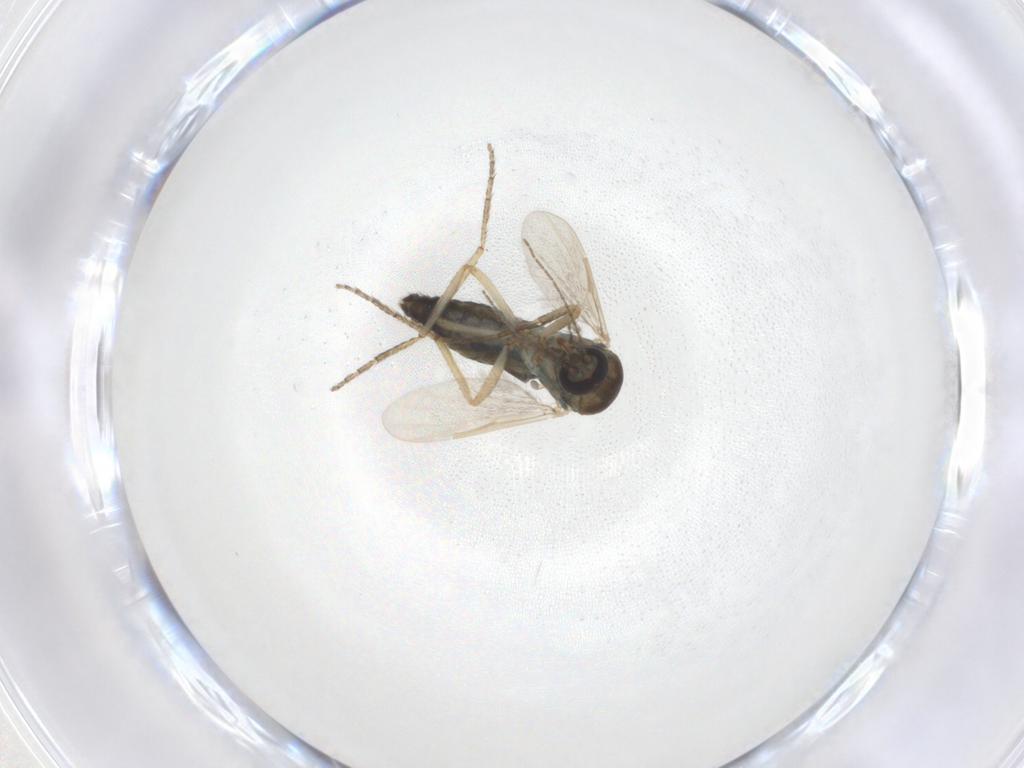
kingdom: Animalia
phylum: Arthropoda
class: Insecta
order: Diptera
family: Ceratopogonidae
